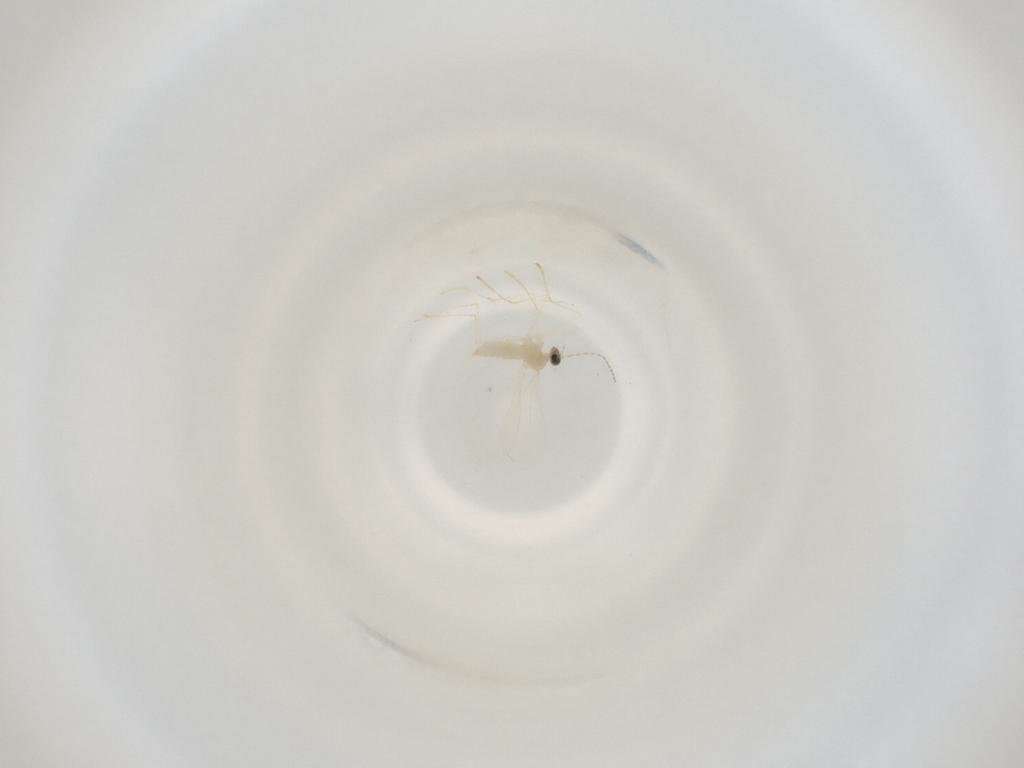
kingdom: Animalia
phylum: Arthropoda
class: Insecta
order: Diptera
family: Cecidomyiidae
